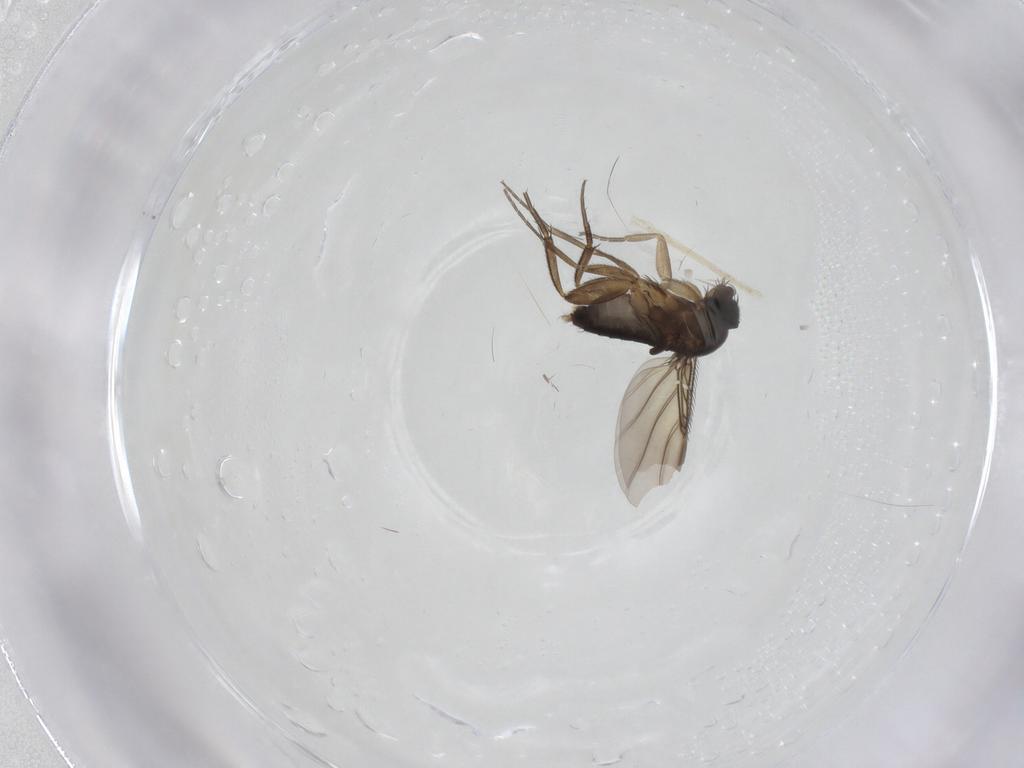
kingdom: Animalia
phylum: Arthropoda
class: Insecta
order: Diptera
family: Phoridae
